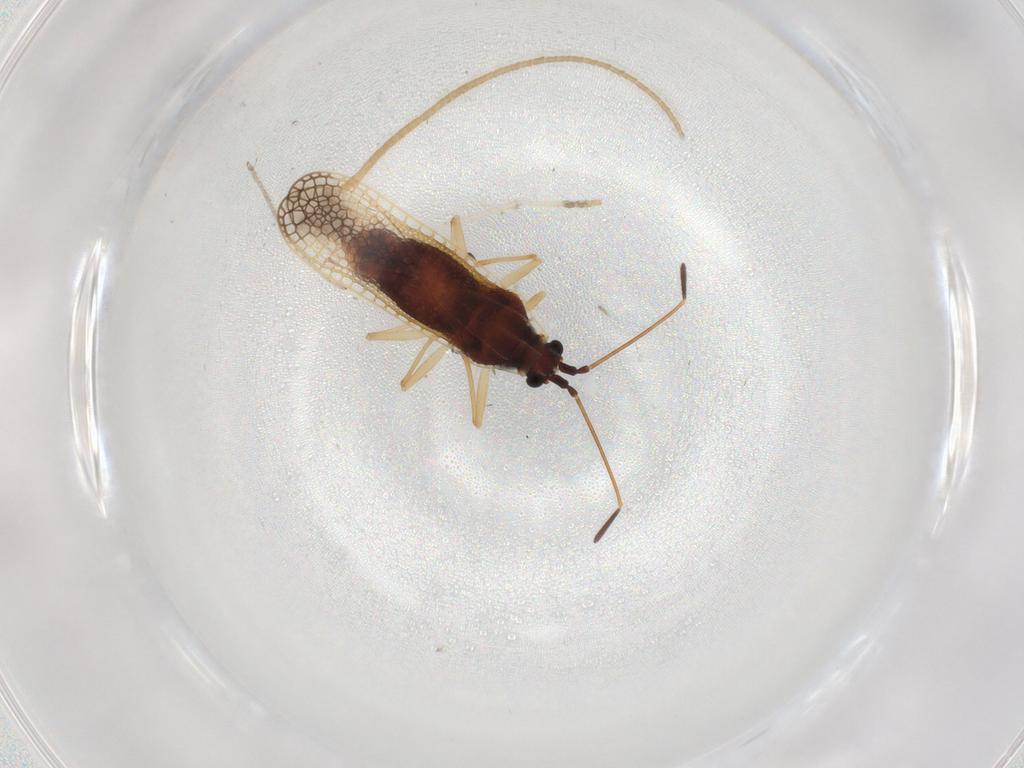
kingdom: Animalia
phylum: Arthropoda
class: Insecta
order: Hemiptera
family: Tingidae
